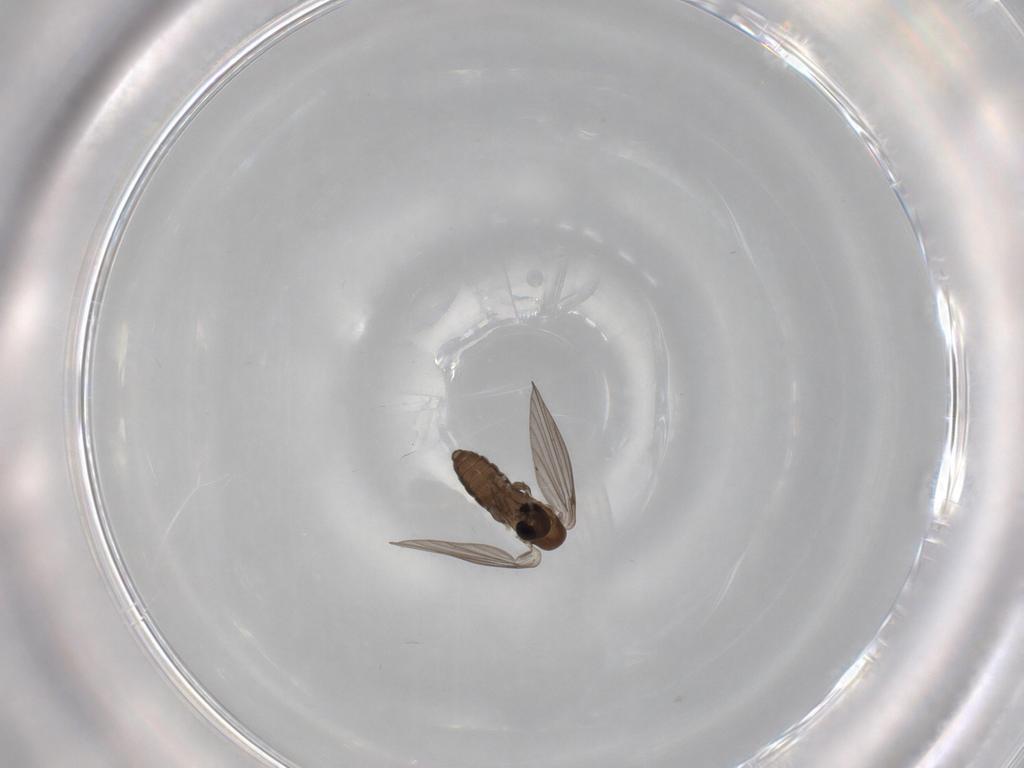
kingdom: Animalia
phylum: Arthropoda
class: Insecta
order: Diptera
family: Psychodidae
